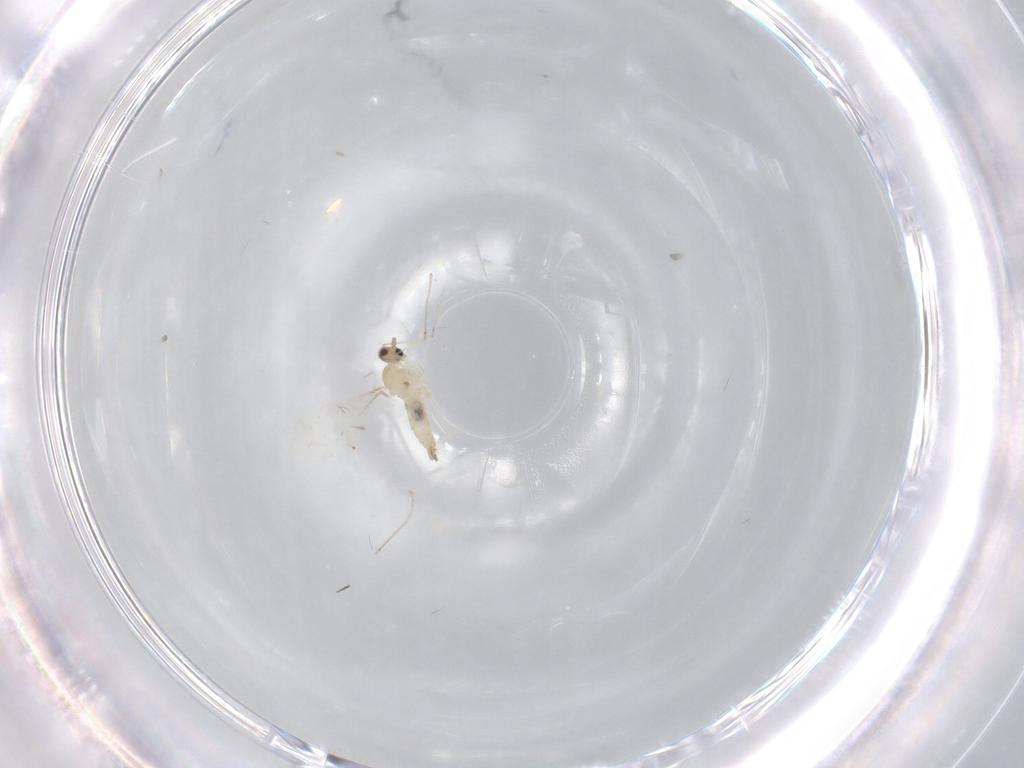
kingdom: Animalia
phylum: Arthropoda
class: Insecta
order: Diptera
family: Cecidomyiidae
